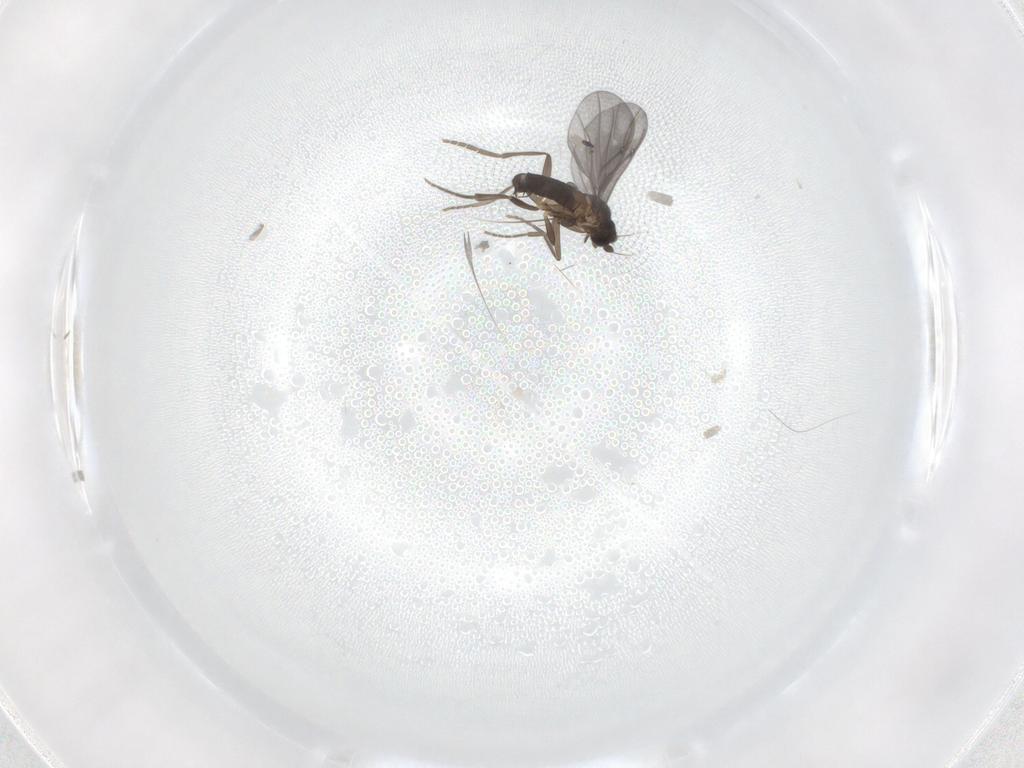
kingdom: Animalia
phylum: Arthropoda
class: Insecta
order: Diptera
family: Phoridae
